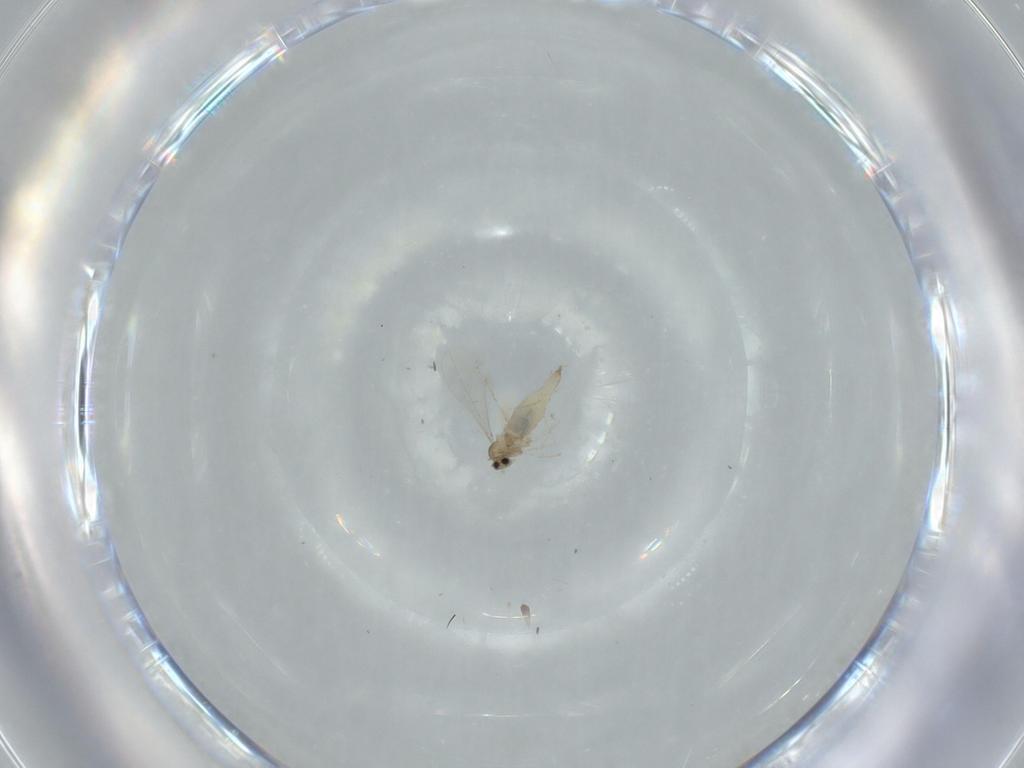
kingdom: Animalia
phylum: Arthropoda
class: Insecta
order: Diptera
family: Cecidomyiidae
